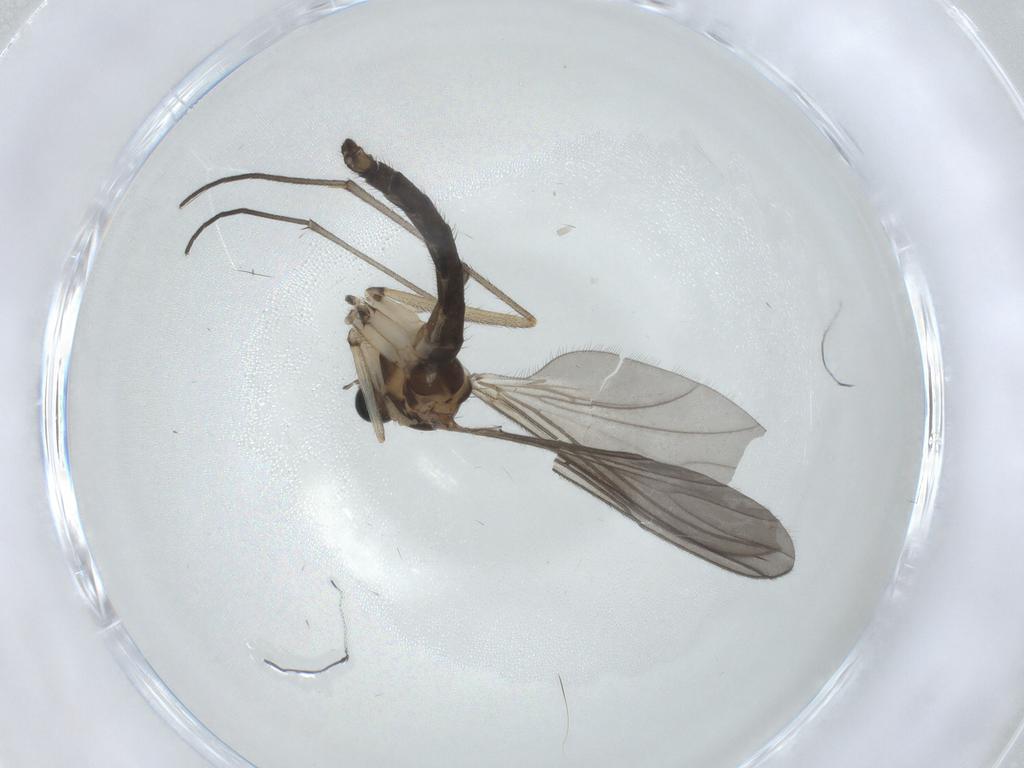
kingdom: Animalia
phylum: Arthropoda
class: Insecta
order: Diptera
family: Sciaridae
